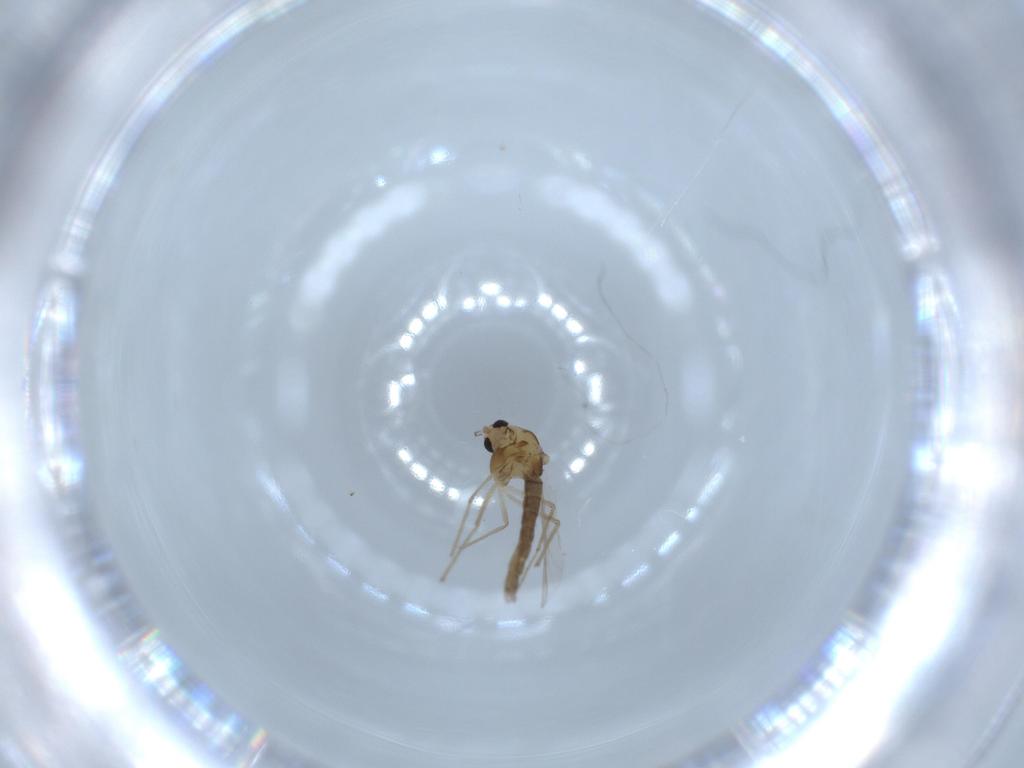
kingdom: Animalia
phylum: Arthropoda
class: Insecta
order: Diptera
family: Chironomidae
